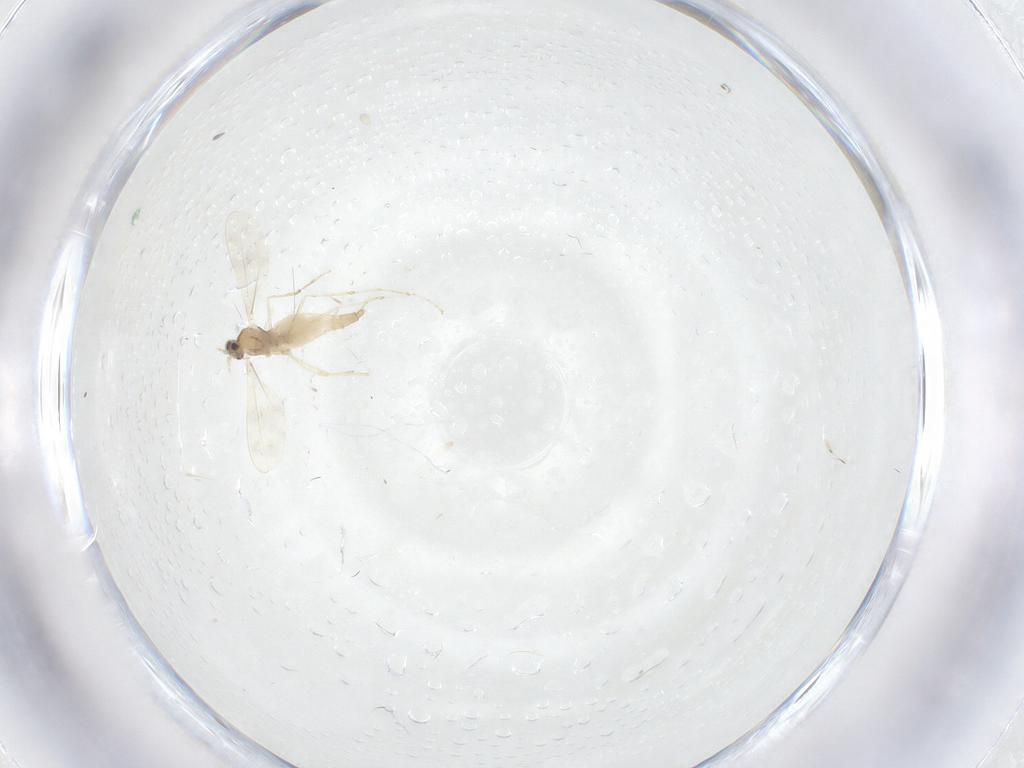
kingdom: Animalia
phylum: Arthropoda
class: Insecta
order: Diptera
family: Cecidomyiidae
